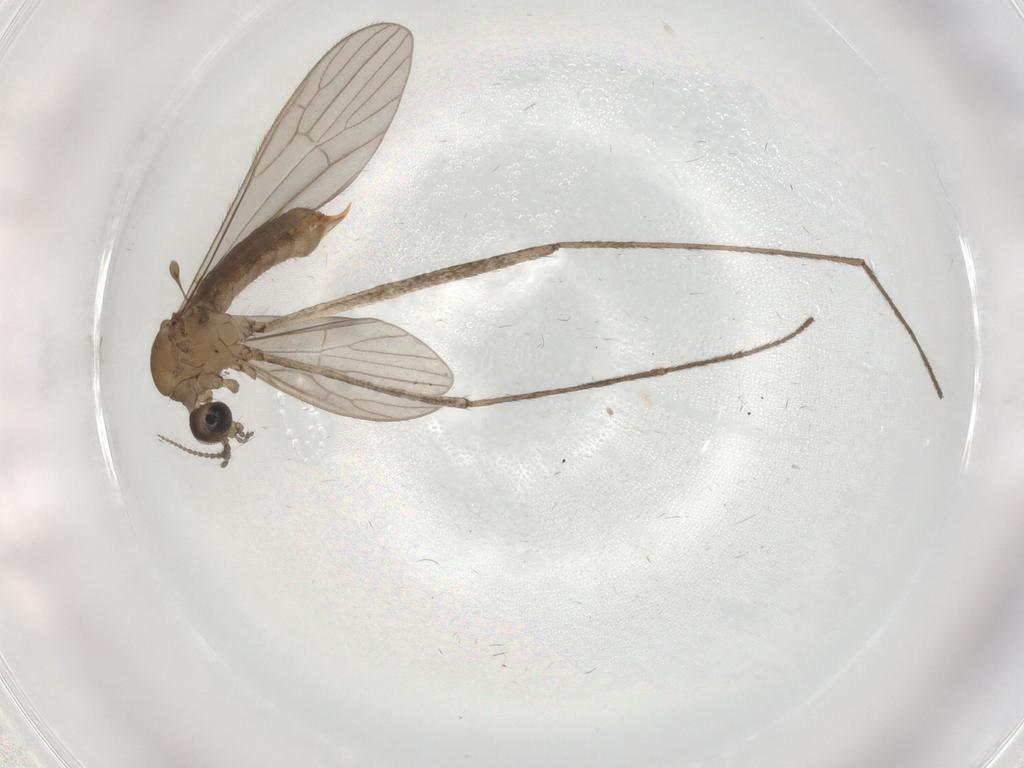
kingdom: Animalia
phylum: Arthropoda
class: Insecta
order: Diptera
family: Limoniidae
